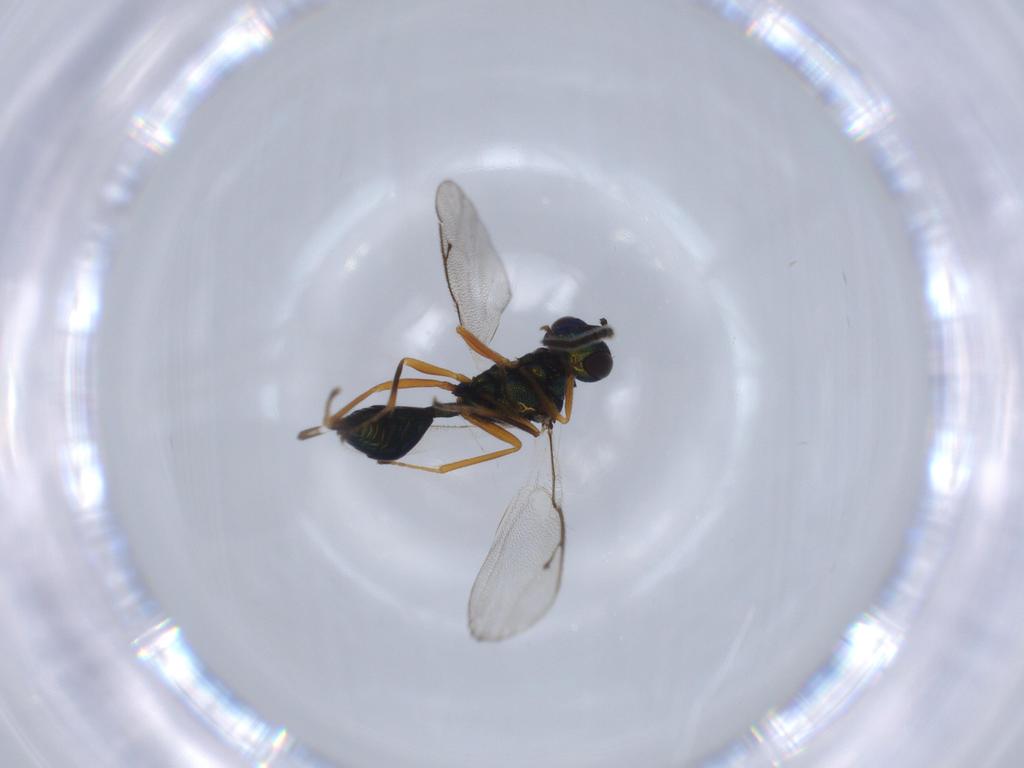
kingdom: Animalia
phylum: Arthropoda
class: Insecta
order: Hymenoptera
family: Pteromalidae
